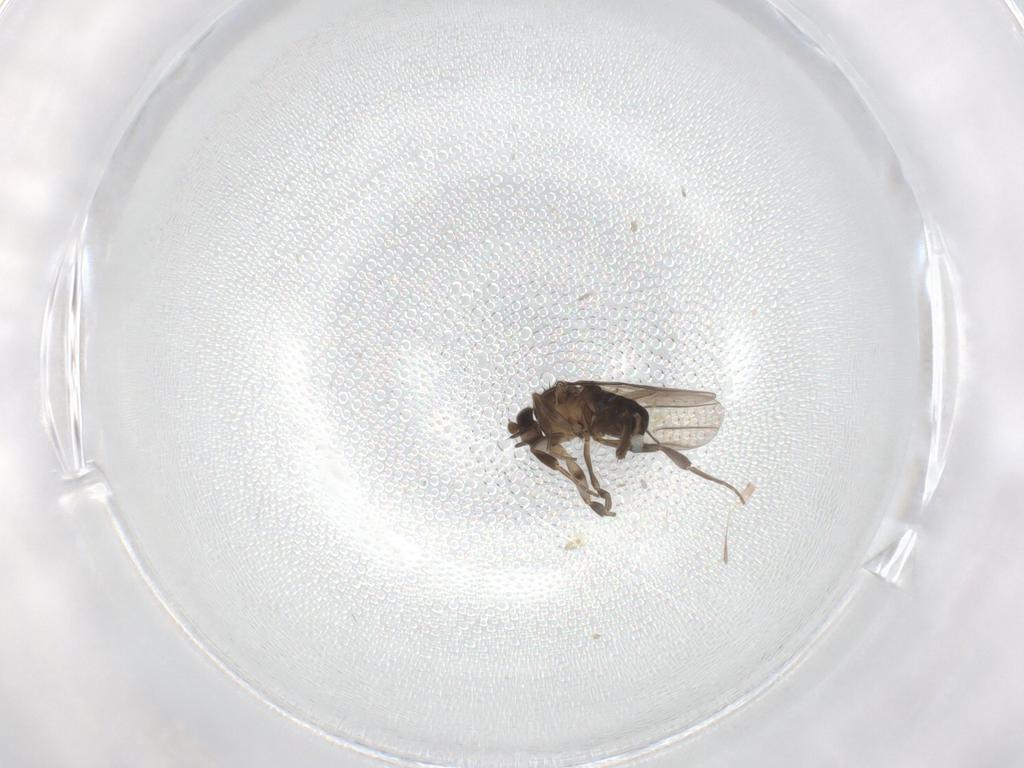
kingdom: Animalia
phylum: Arthropoda
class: Insecta
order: Diptera
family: Phoridae
